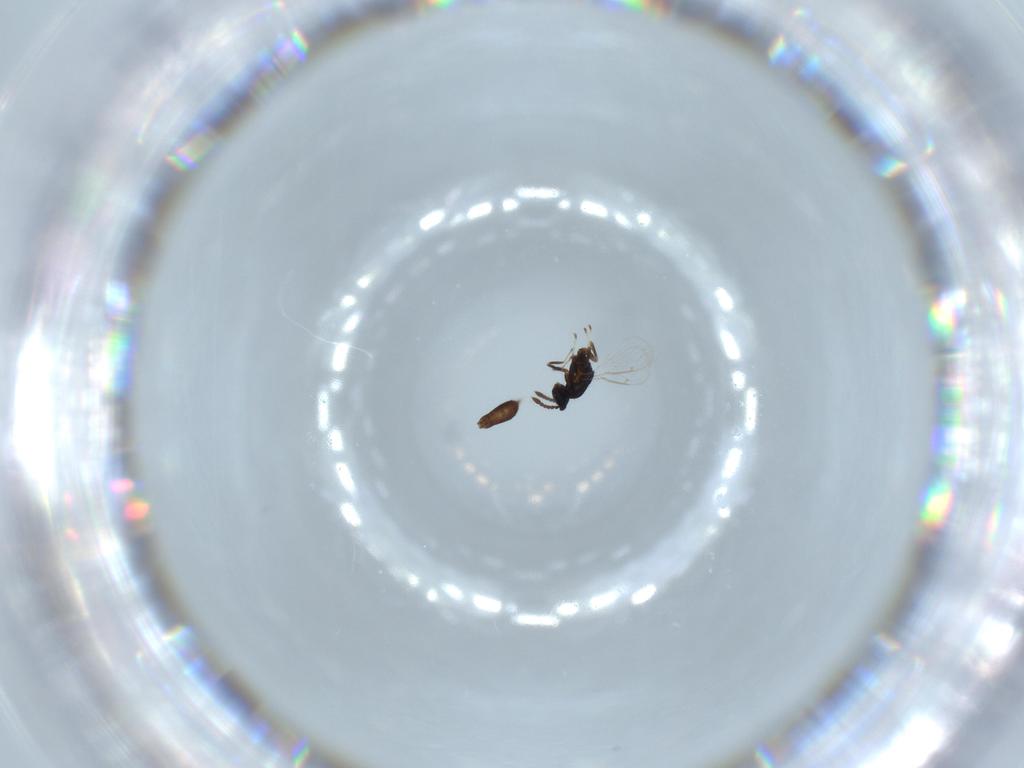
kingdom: Animalia
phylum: Arthropoda
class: Insecta
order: Hymenoptera
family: Eulophidae
